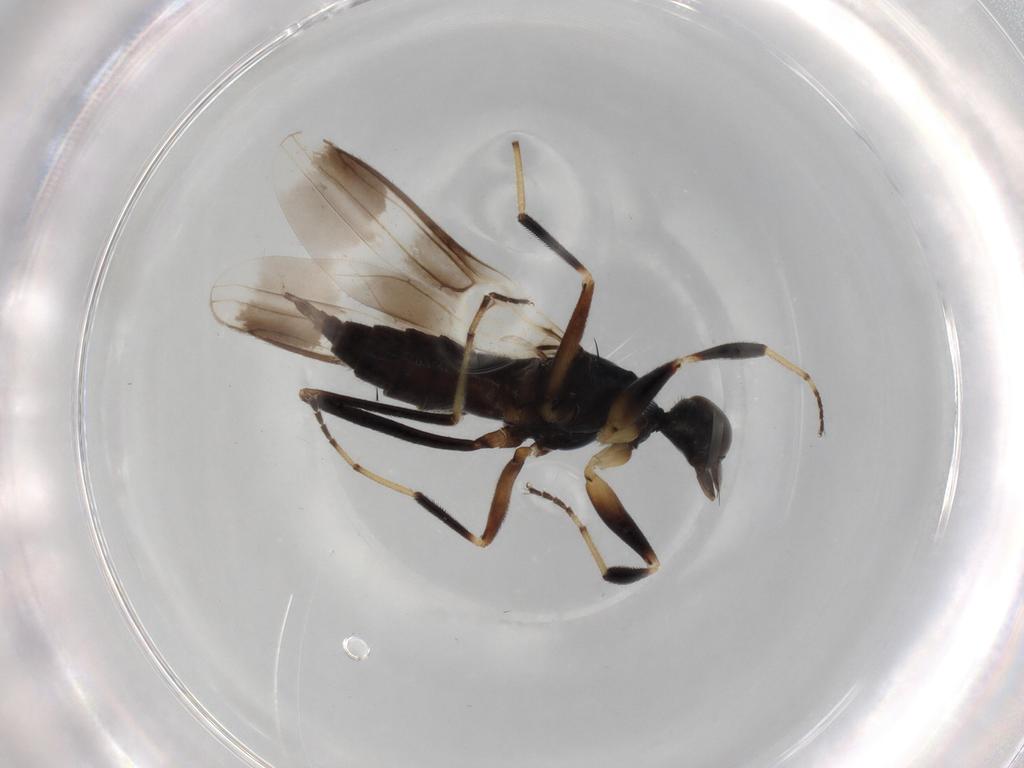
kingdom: Animalia
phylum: Arthropoda
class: Insecta
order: Diptera
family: Hybotidae
